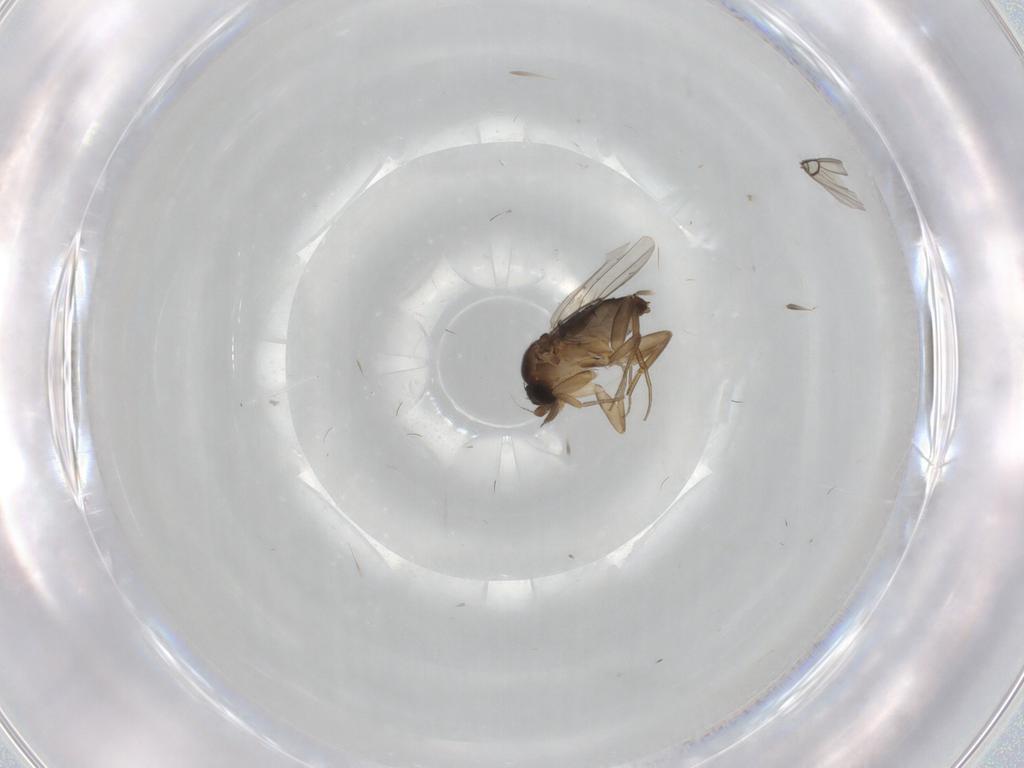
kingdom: Animalia
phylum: Arthropoda
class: Insecta
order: Diptera
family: Phoridae
